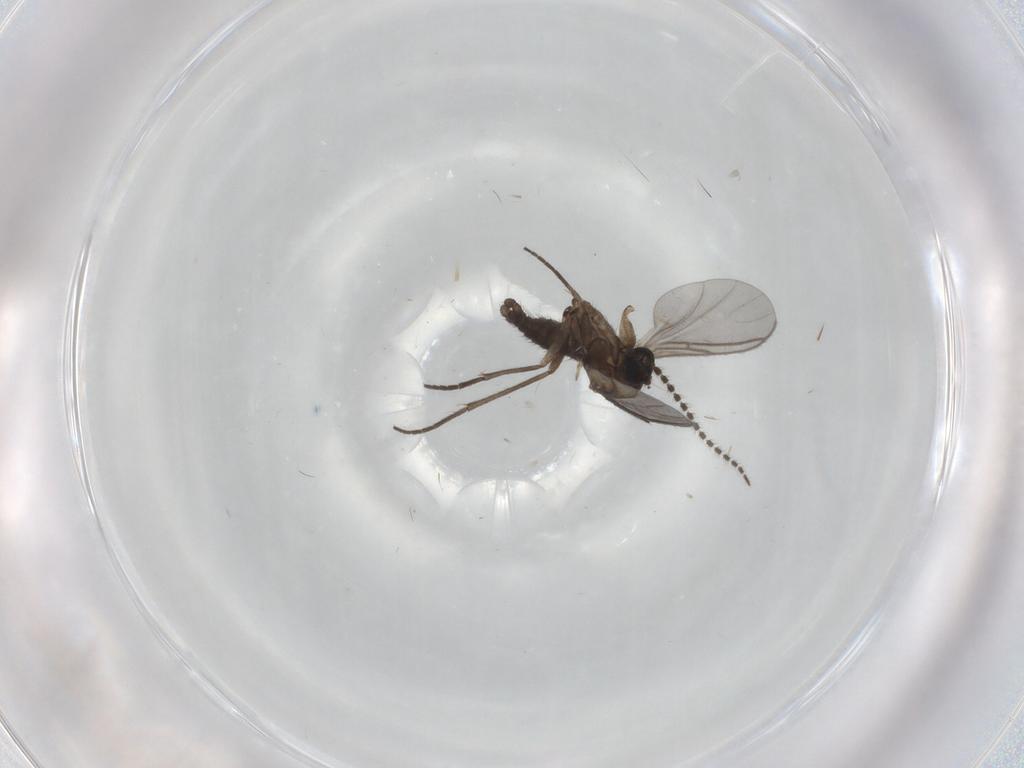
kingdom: Animalia
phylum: Arthropoda
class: Insecta
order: Diptera
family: Sciaridae
